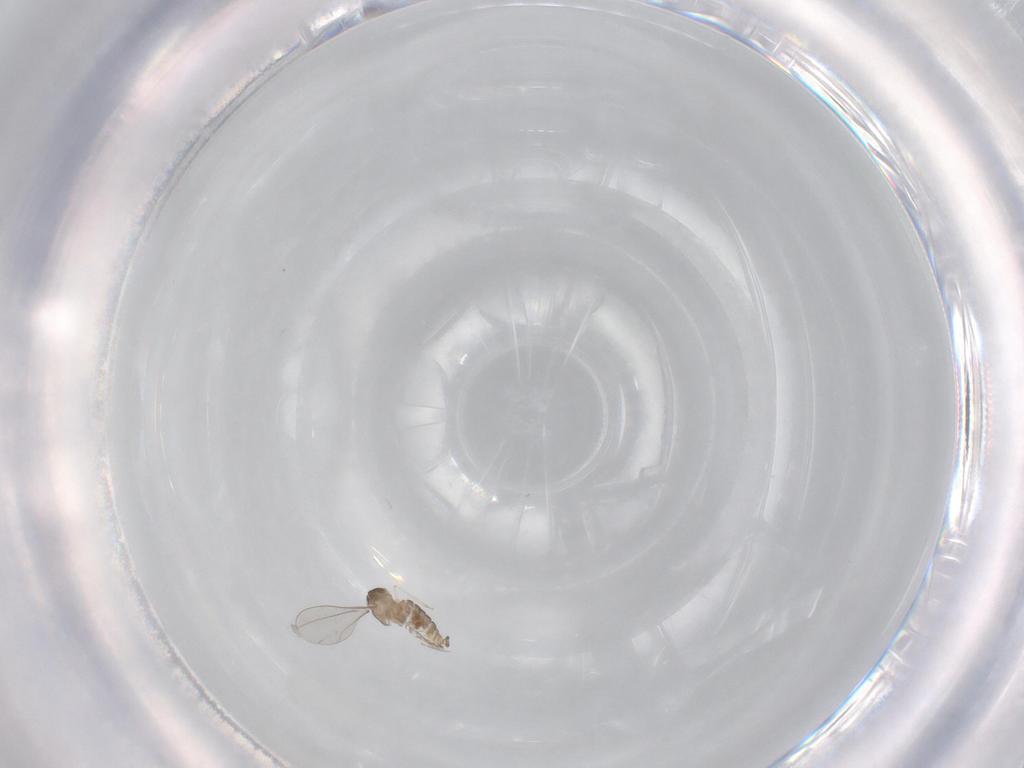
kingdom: Animalia
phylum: Arthropoda
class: Insecta
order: Diptera
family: Cecidomyiidae
